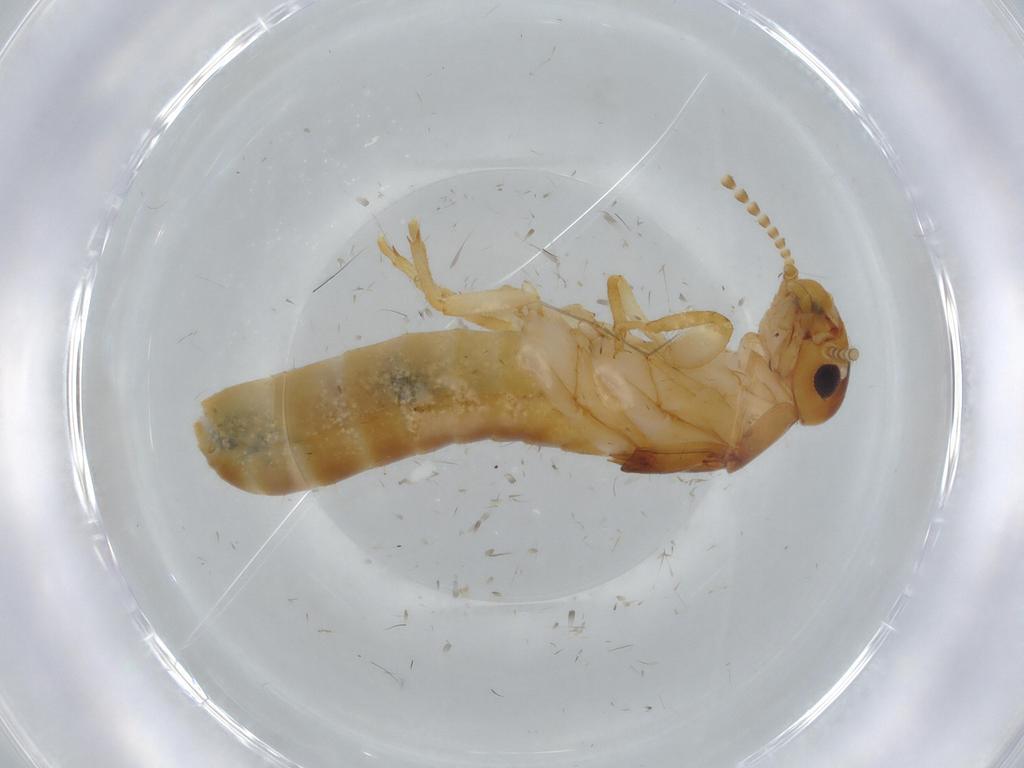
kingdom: Animalia
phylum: Arthropoda
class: Insecta
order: Blattodea
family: Kalotermitidae
